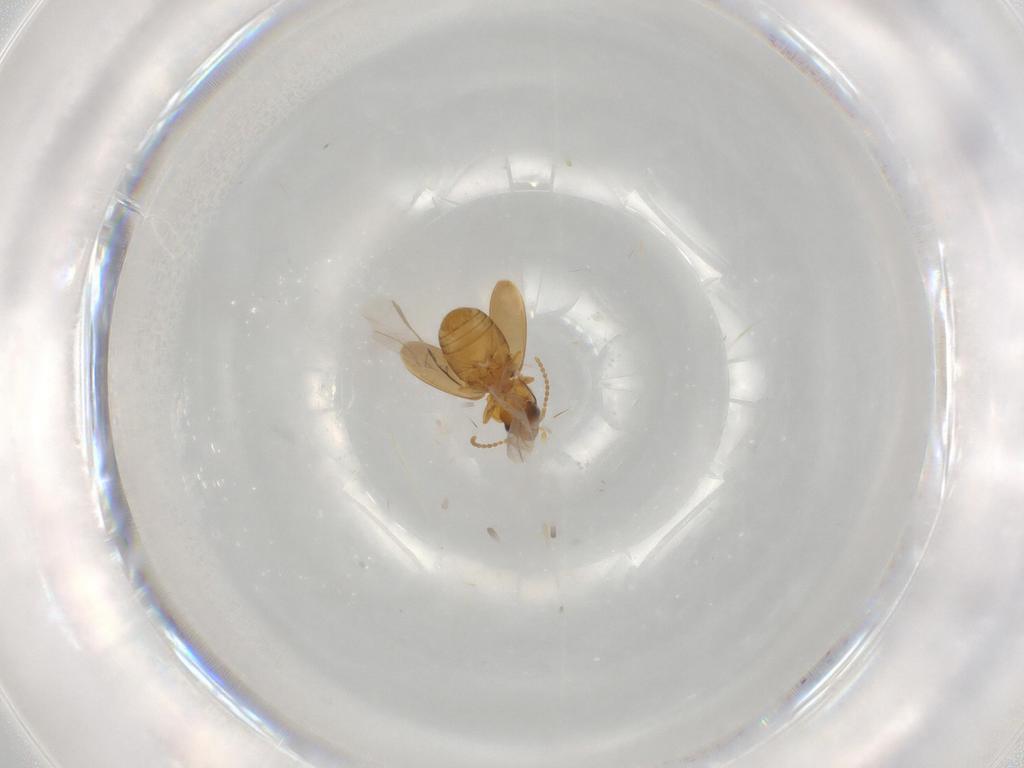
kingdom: Animalia
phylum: Arthropoda
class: Insecta
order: Coleoptera
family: Carabidae
